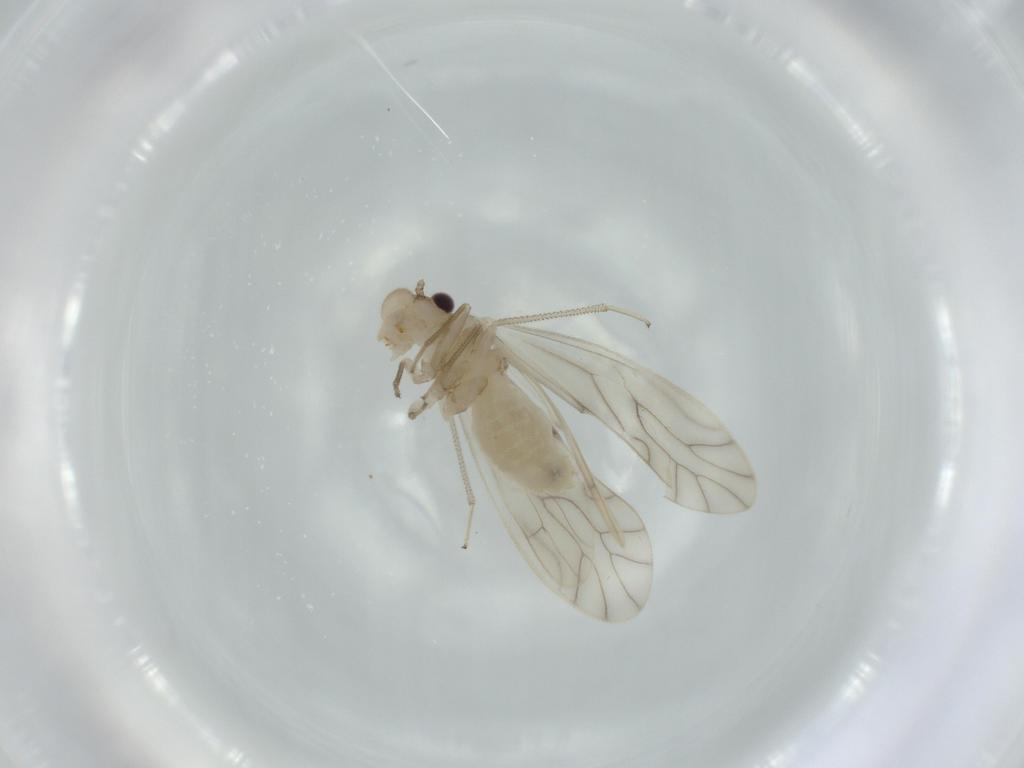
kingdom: Animalia
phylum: Arthropoda
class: Insecta
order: Psocodea
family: Caeciliusidae
